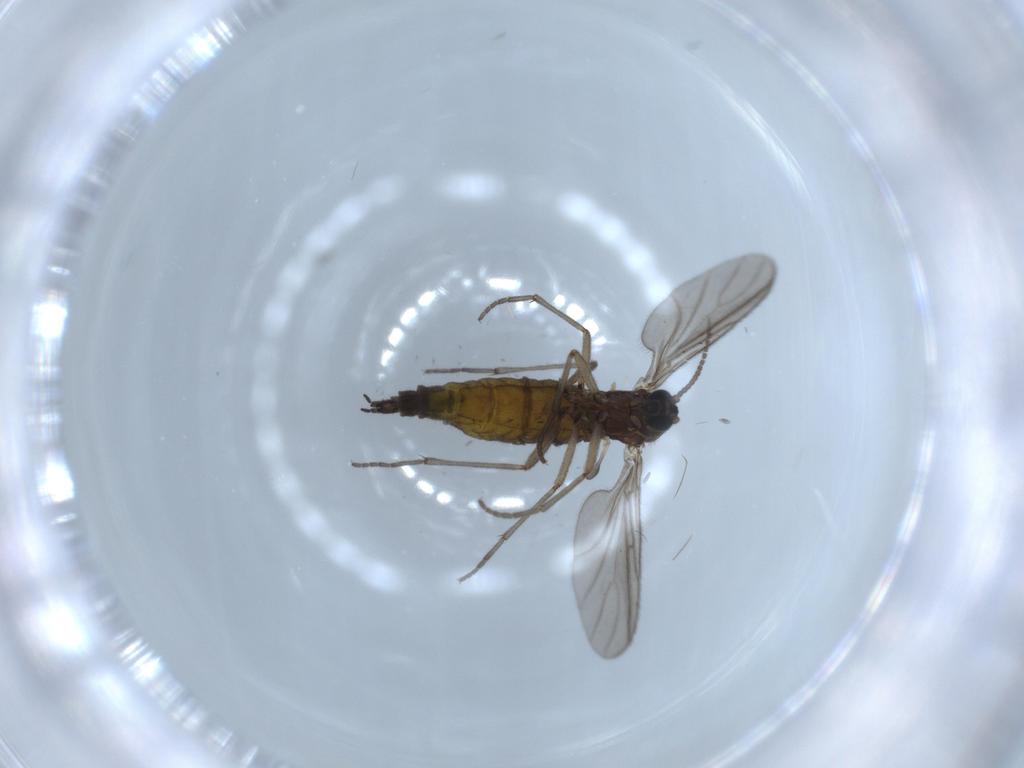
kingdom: Animalia
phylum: Arthropoda
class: Insecta
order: Diptera
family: Sciaridae
